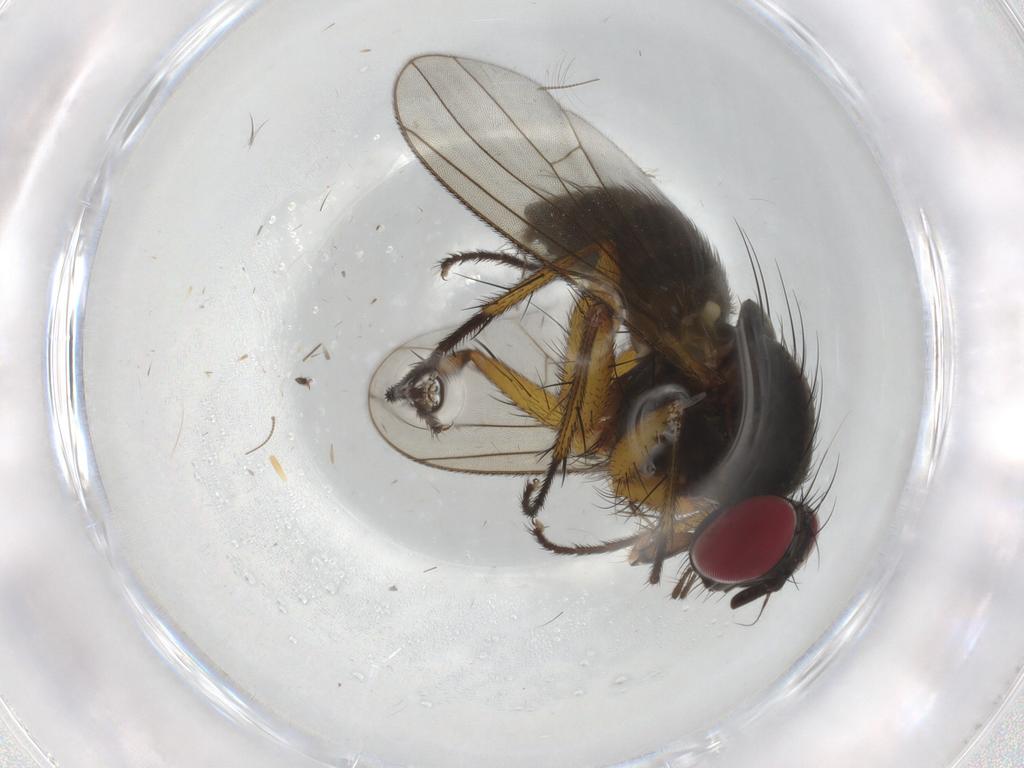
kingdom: Animalia
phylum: Arthropoda
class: Insecta
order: Diptera
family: Muscidae
